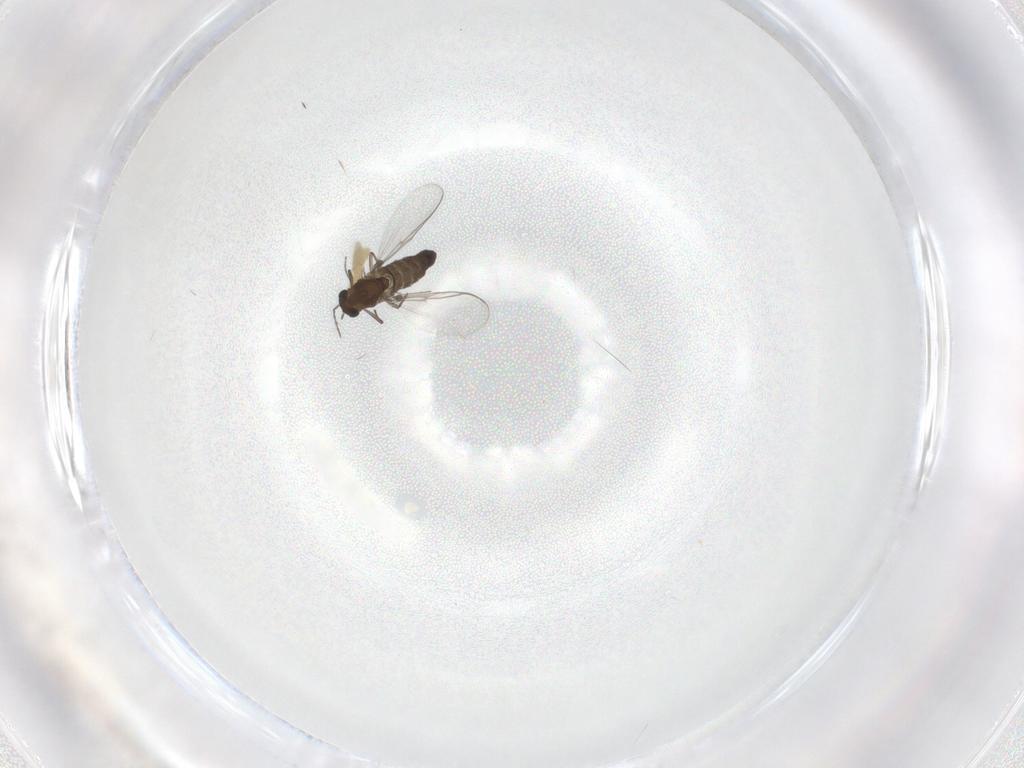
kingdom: Animalia
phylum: Arthropoda
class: Insecta
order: Diptera
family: Chironomidae
